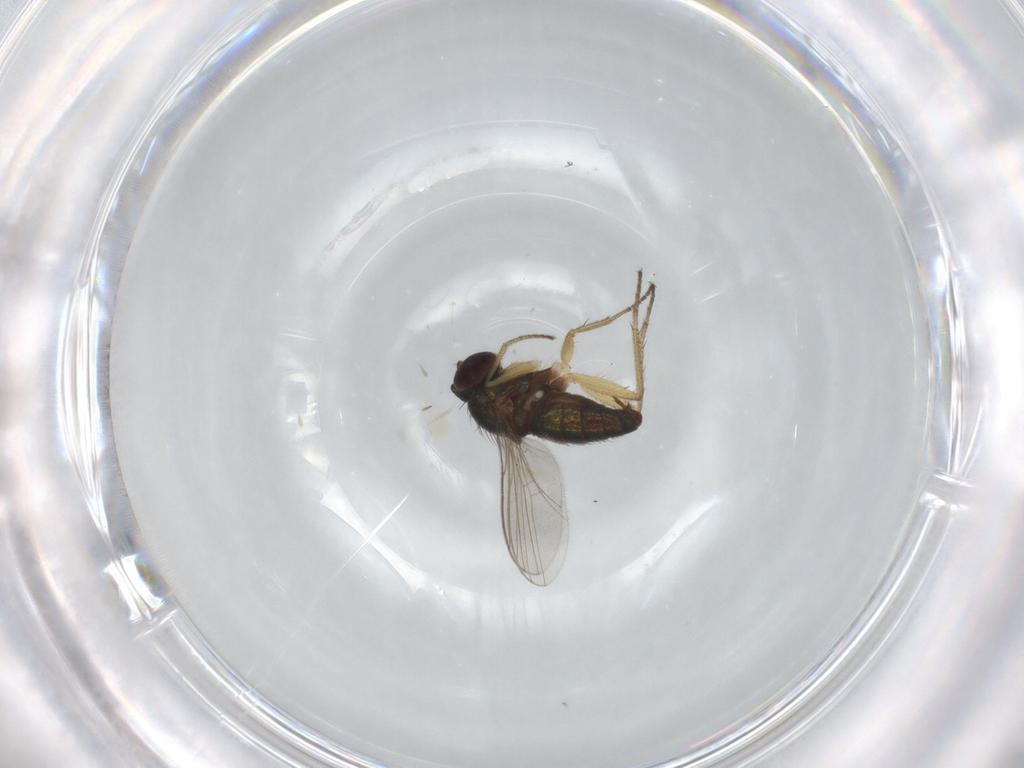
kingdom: Animalia
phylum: Arthropoda
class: Insecta
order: Diptera
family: Dolichopodidae
